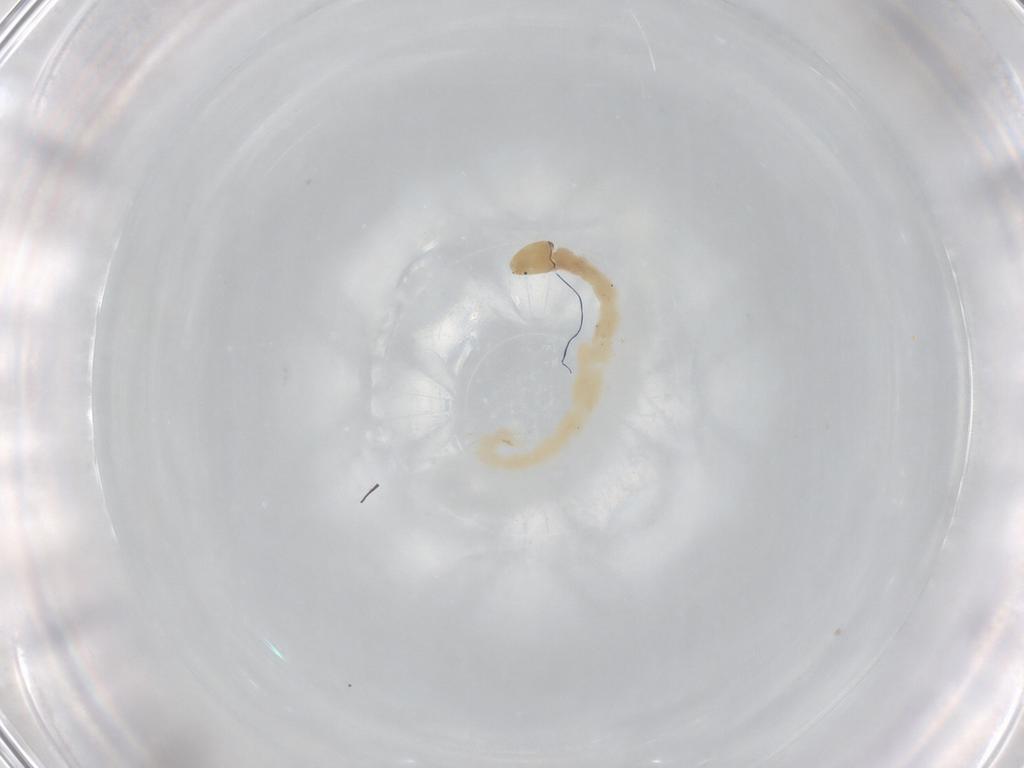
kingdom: Animalia
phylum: Arthropoda
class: Insecta
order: Diptera
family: Chironomidae
